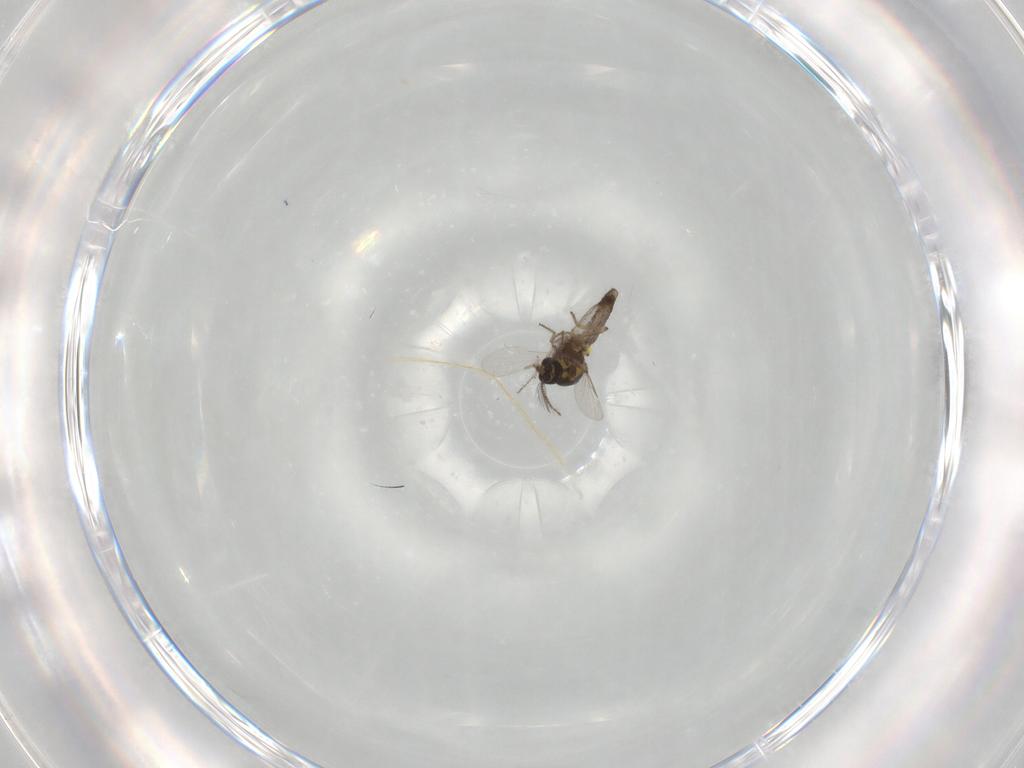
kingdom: Animalia
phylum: Arthropoda
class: Insecta
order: Diptera
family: Ceratopogonidae
